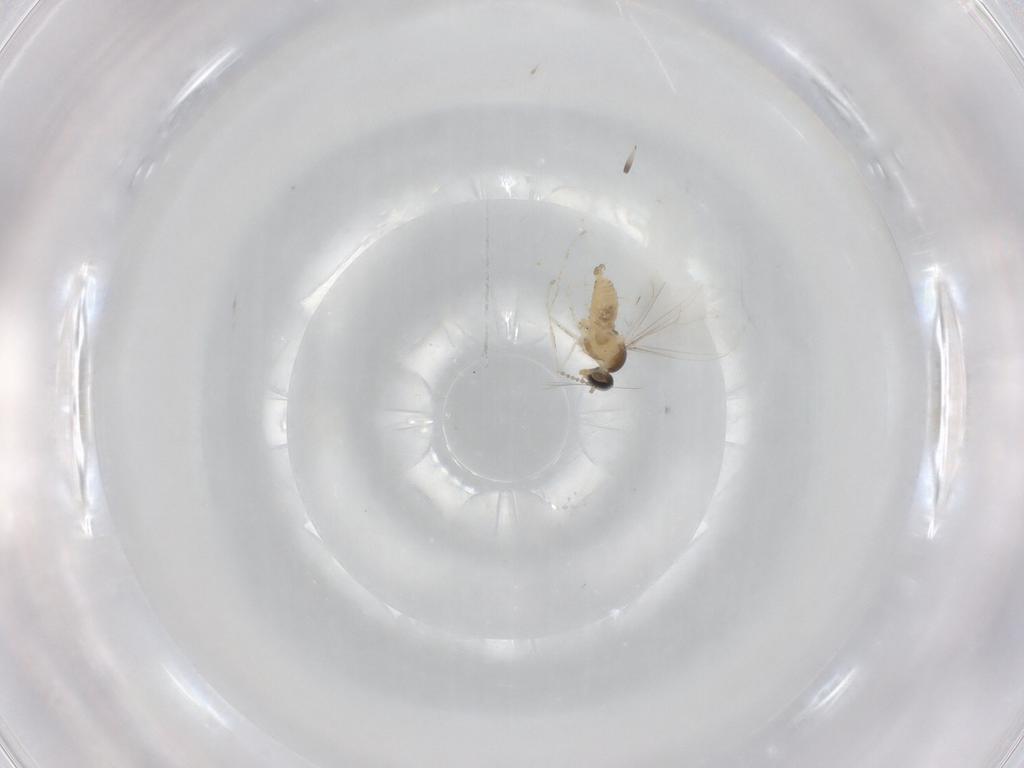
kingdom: Animalia
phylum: Arthropoda
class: Insecta
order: Diptera
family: Cecidomyiidae
